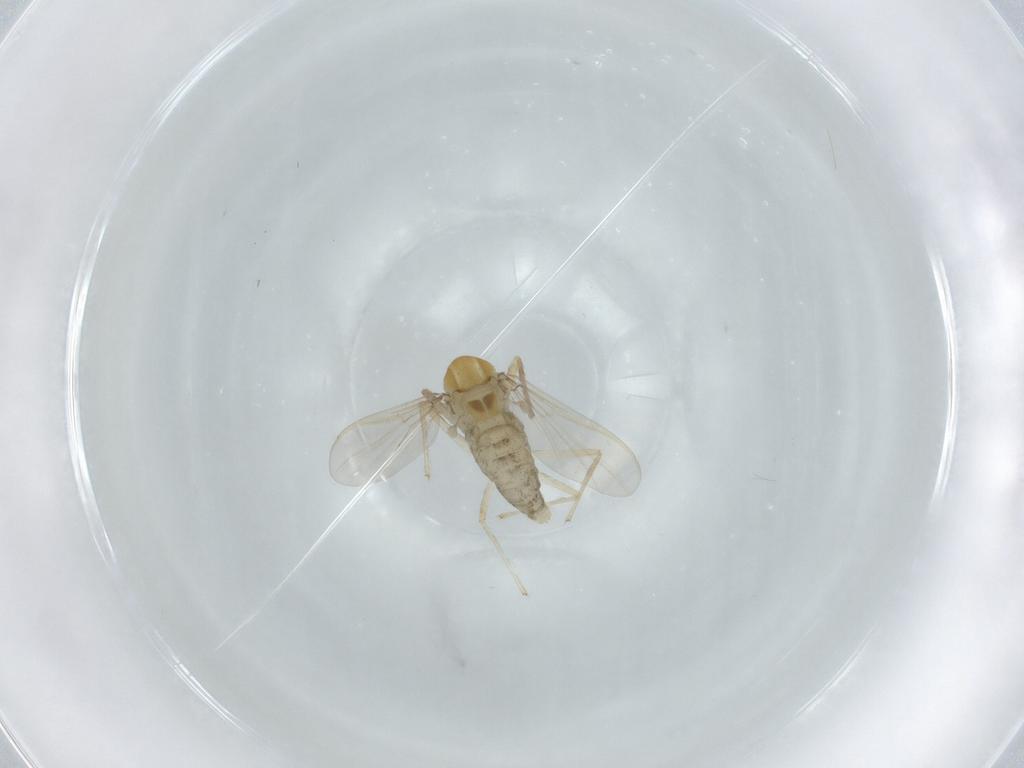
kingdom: Animalia
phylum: Arthropoda
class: Insecta
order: Diptera
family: Chironomidae
